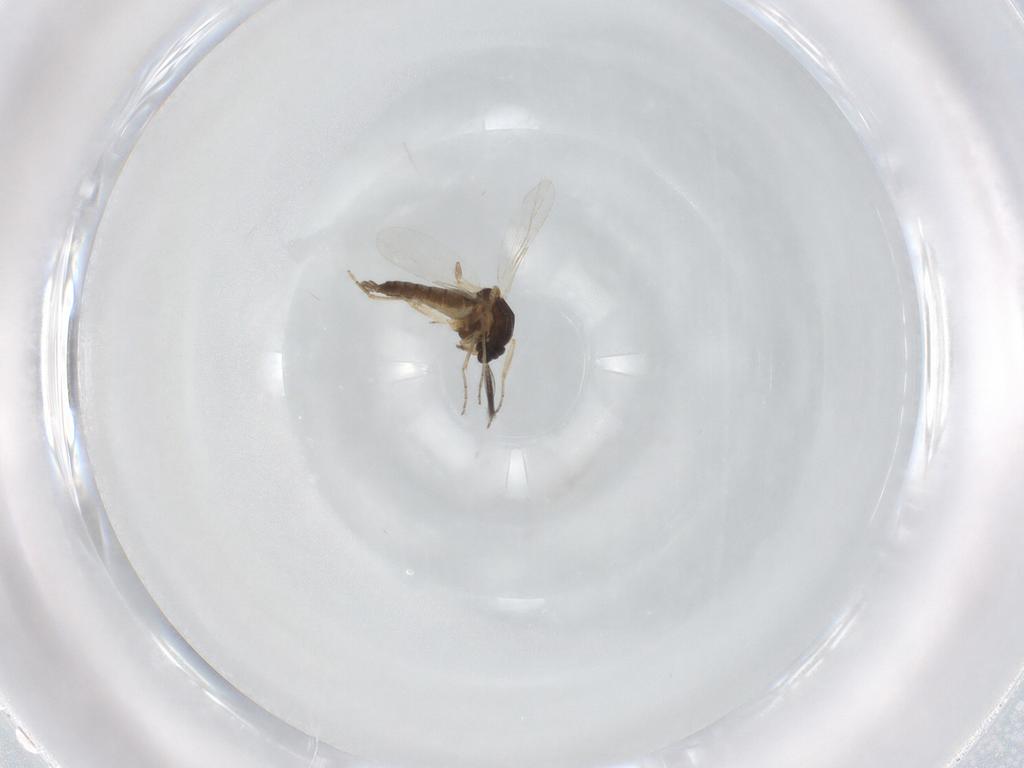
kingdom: Animalia
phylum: Arthropoda
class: Insecta
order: Diptera
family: Ceratopogonidae
